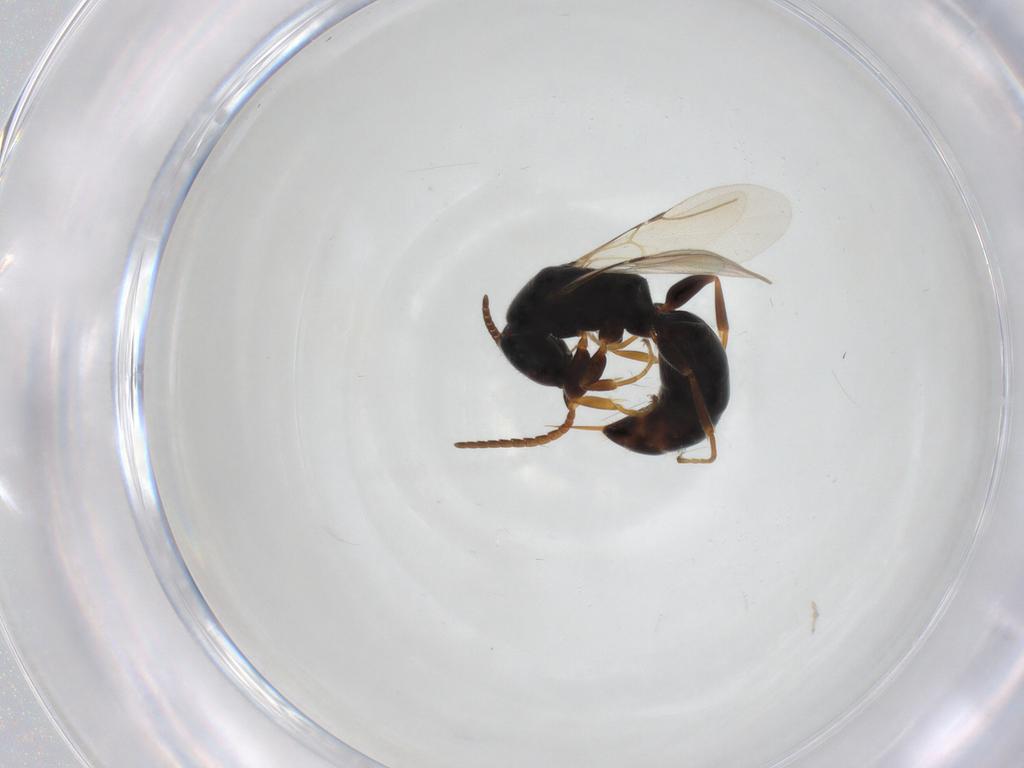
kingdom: Animalia
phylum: Arthropoda
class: Insecta
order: Hymenoptera
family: Bethylidae
